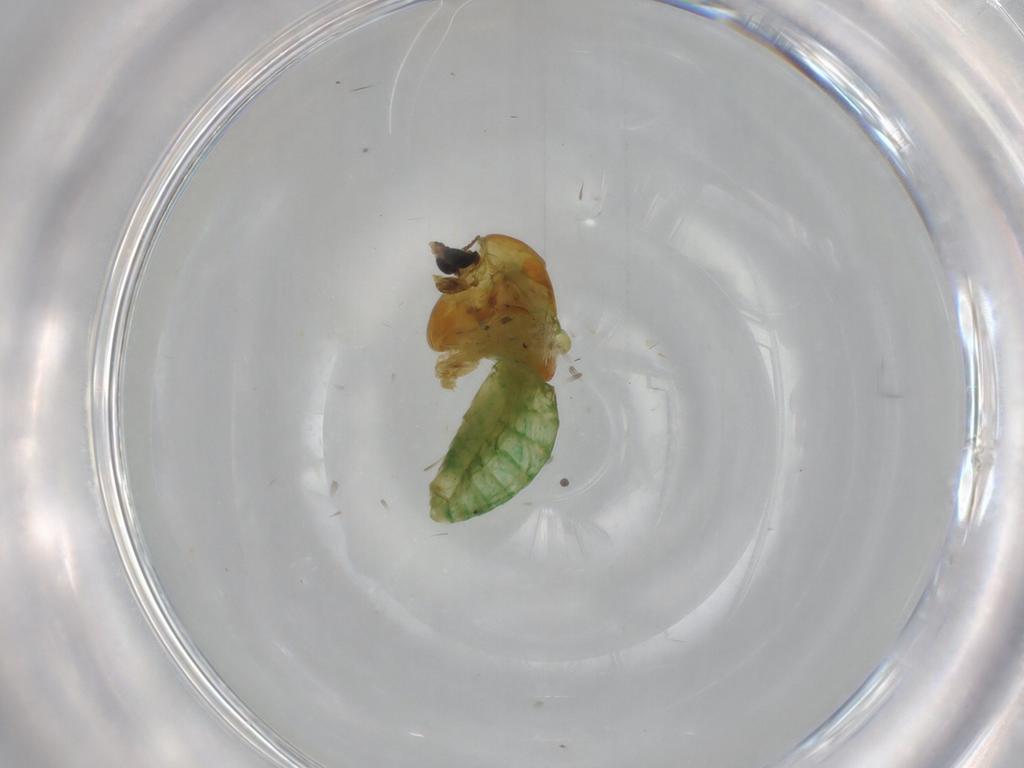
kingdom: Animalia
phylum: Arthropoda
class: Insecta
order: Diptera
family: Chironomidae
